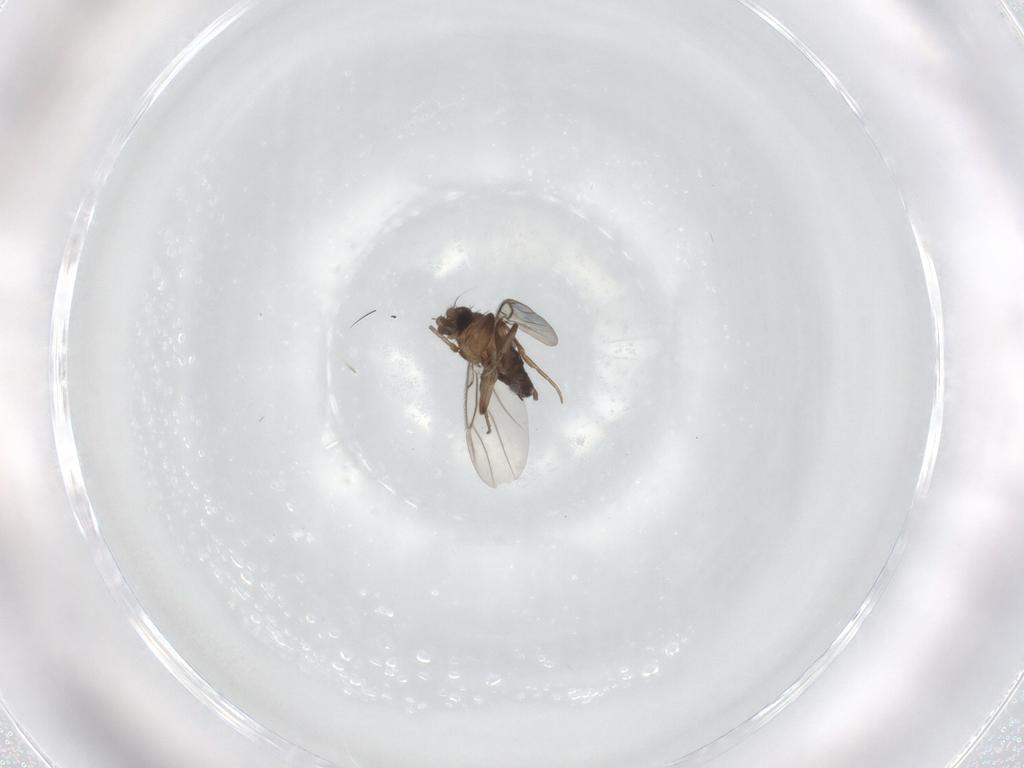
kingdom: Animalia
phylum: Arthropoda
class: Insecta
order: Diptera
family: Phoridae
